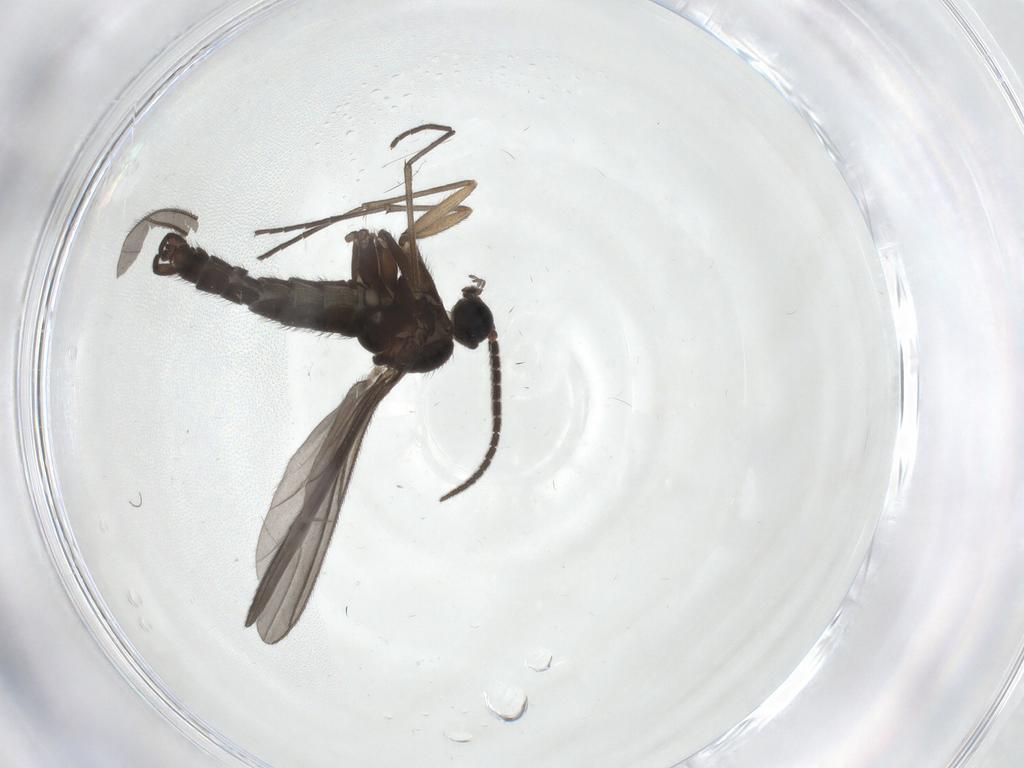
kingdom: Animalia
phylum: Arthropoda
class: Insecta
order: Diptera
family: Sciaridae
